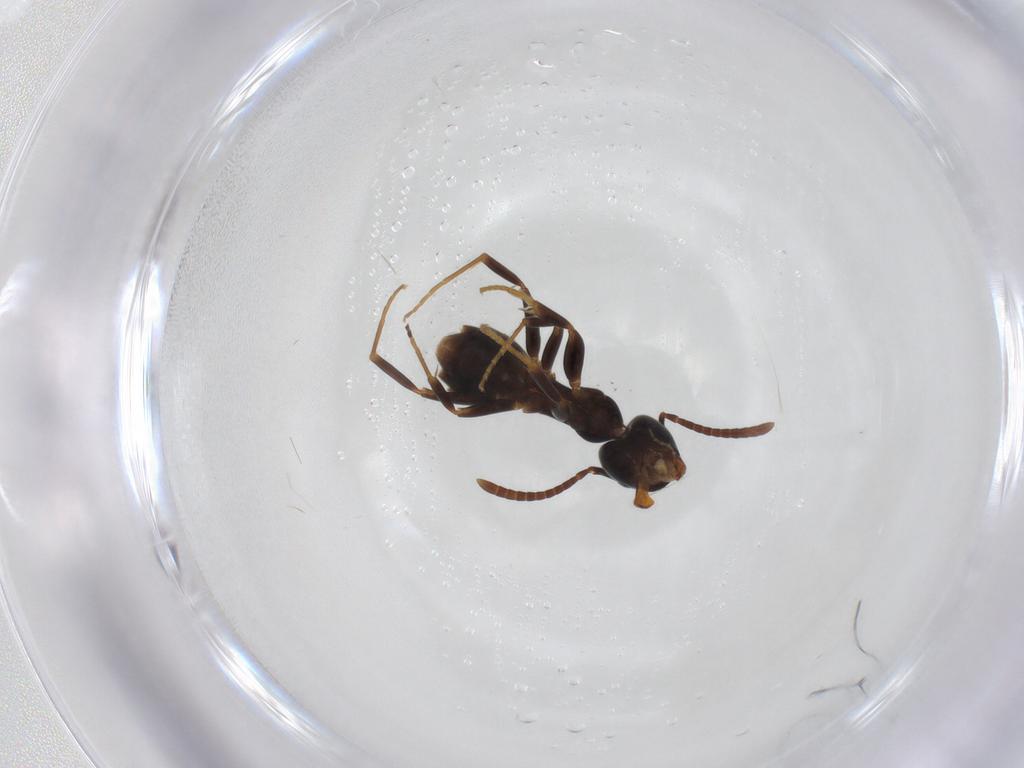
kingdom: Animalia
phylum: Arthropoda
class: Insecta
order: Hymenoptera
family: Formicidae
